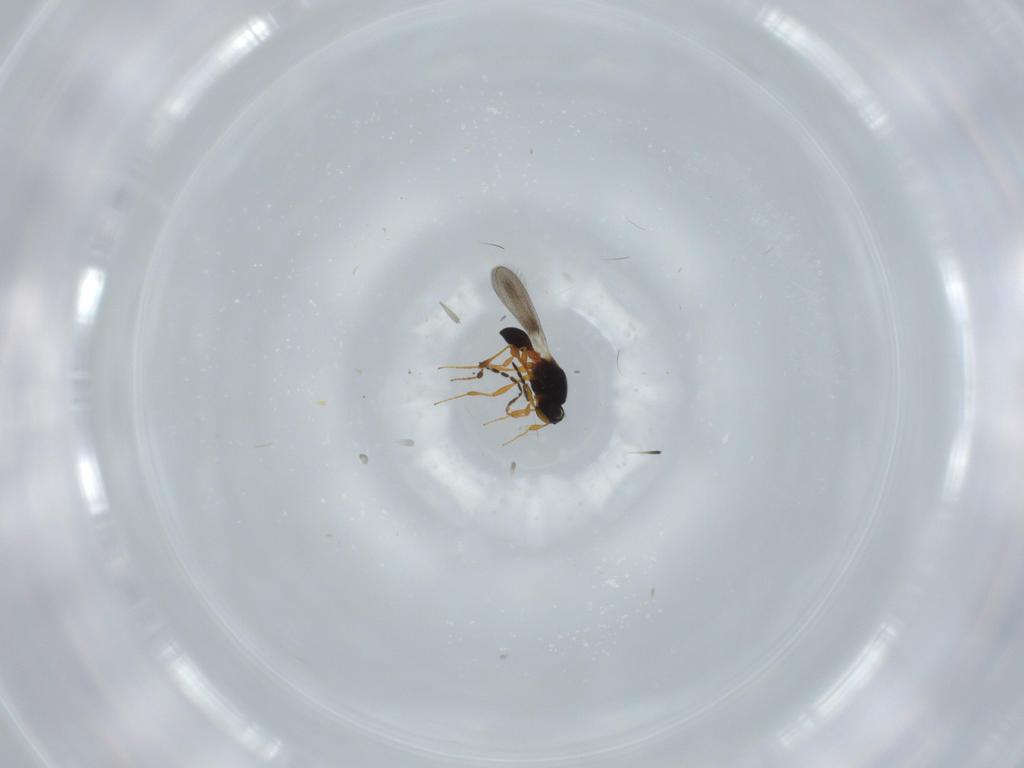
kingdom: Animalia
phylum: Arthropoda
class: Insecta
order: Hymenoptera
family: Platygastridae
